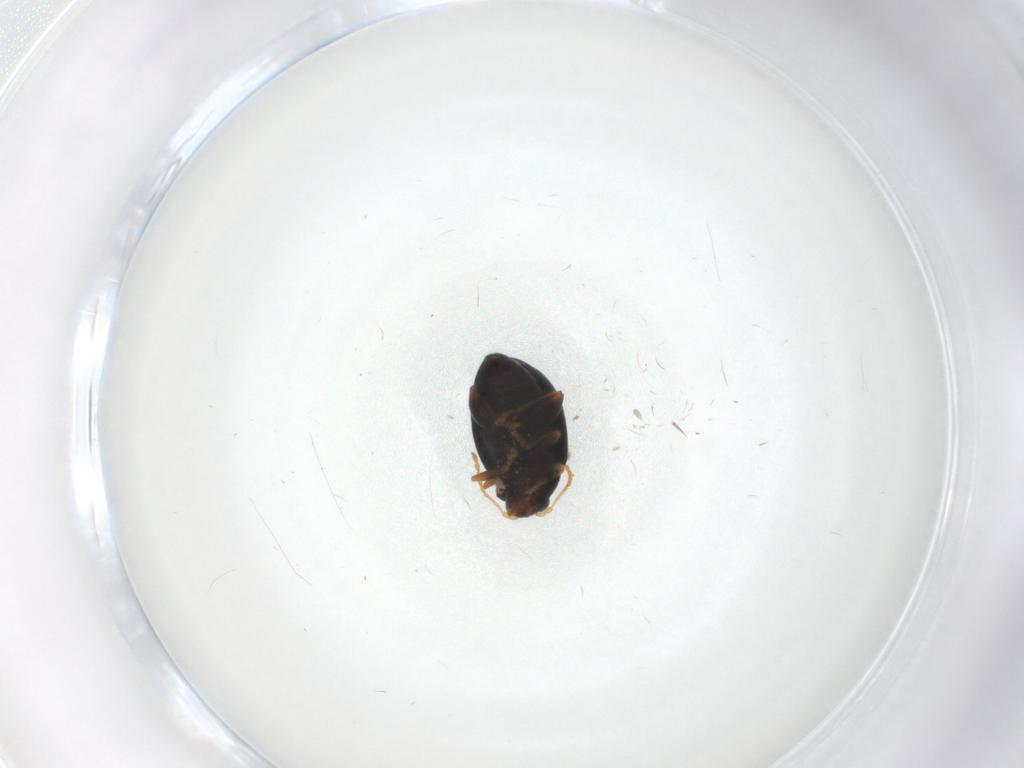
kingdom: Animalia
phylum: Arthropoda
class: Insecta
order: Coleoptera
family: Chrysomelidae
